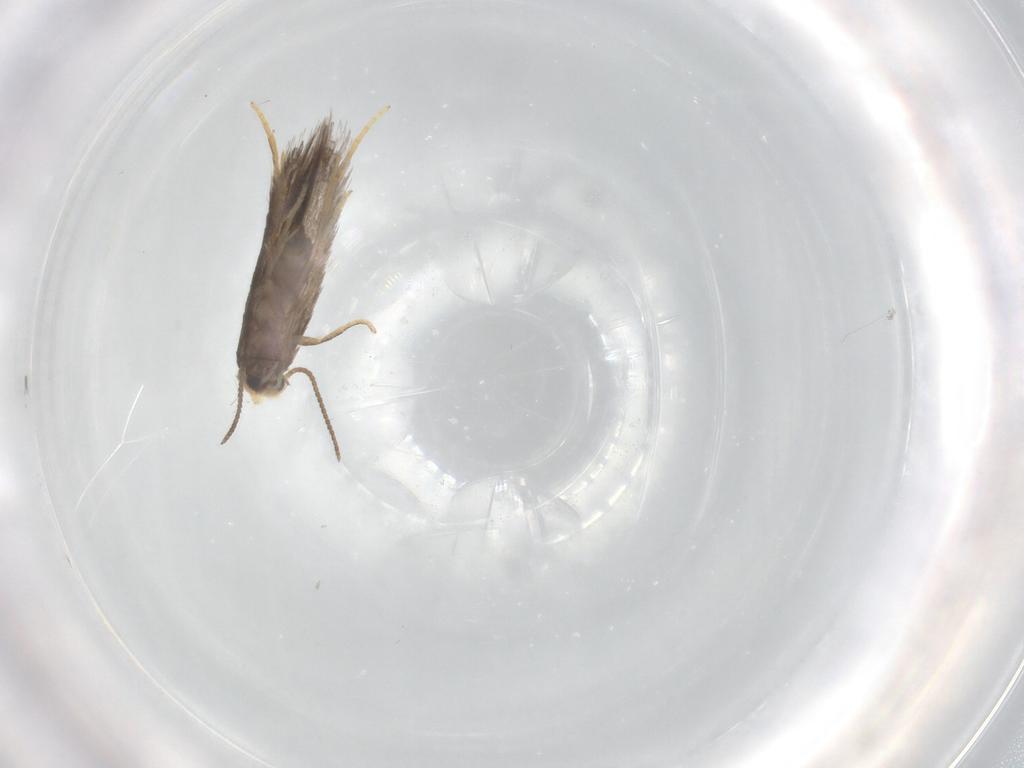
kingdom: Animalia
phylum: Arthropoda
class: Insecta
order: Lepidoptera
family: Nepticulidae
